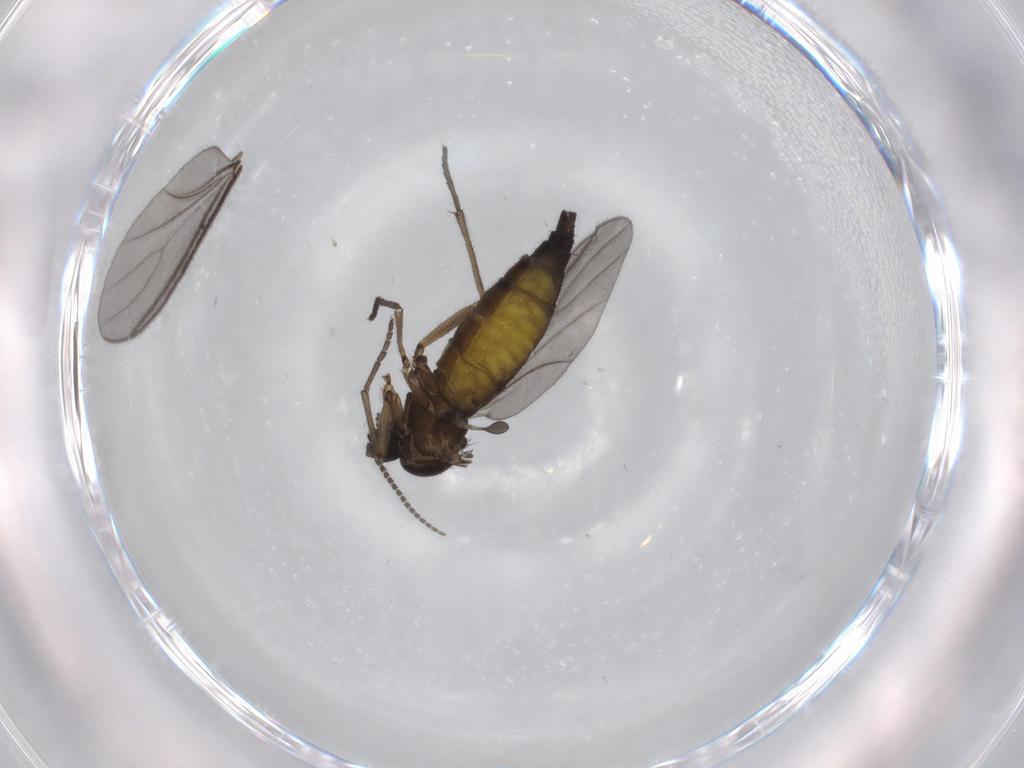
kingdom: Animalia
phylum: Arthropoda
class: Insecta
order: Diptera
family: Sciaridae
